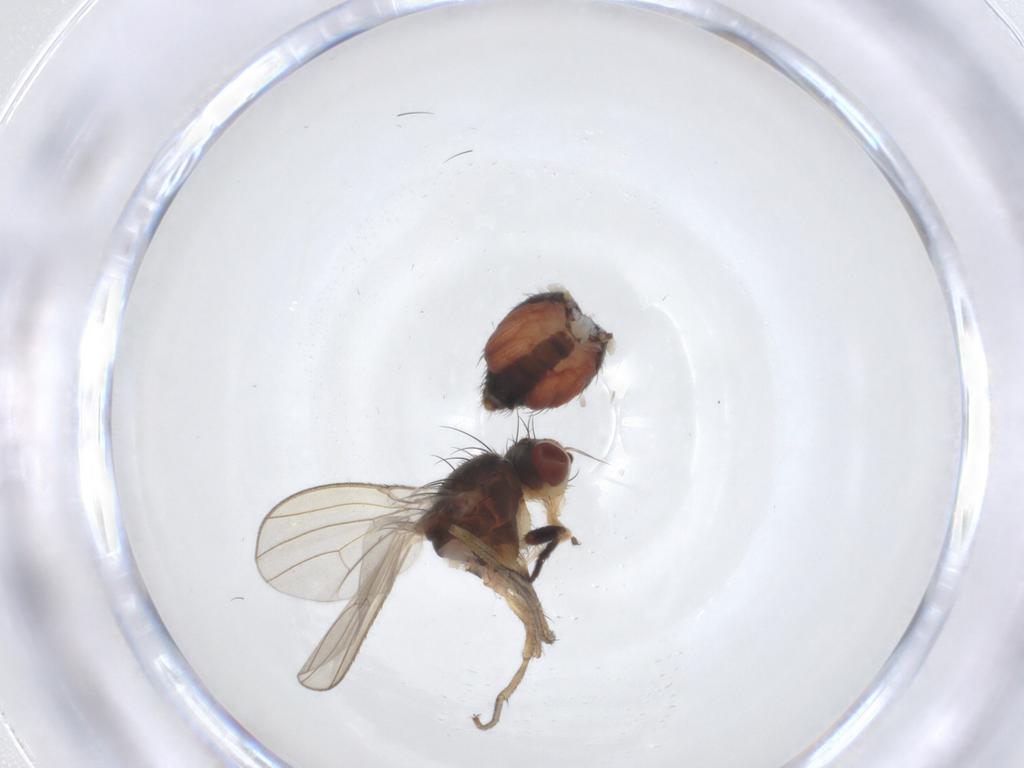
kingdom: Animalia
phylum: Arthropoda
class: Insecta
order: Diptera
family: Heleomyzidae
